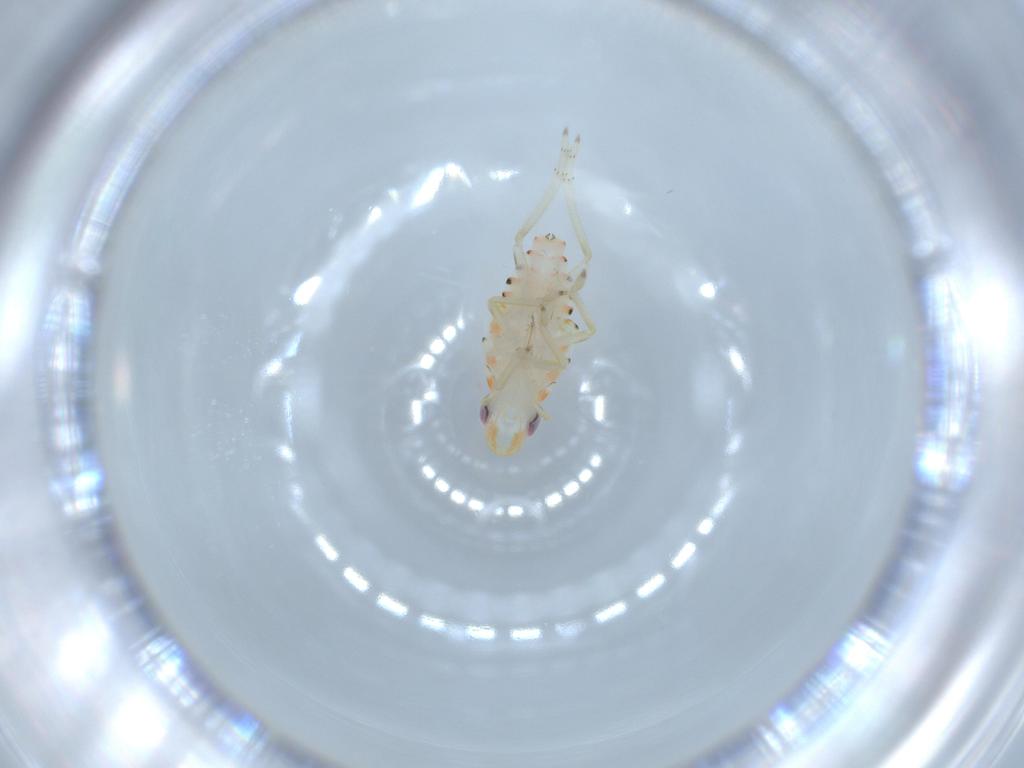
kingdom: Animalia
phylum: Arthropoda
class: Insecta
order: Hemiptera
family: Tropiduchidae
